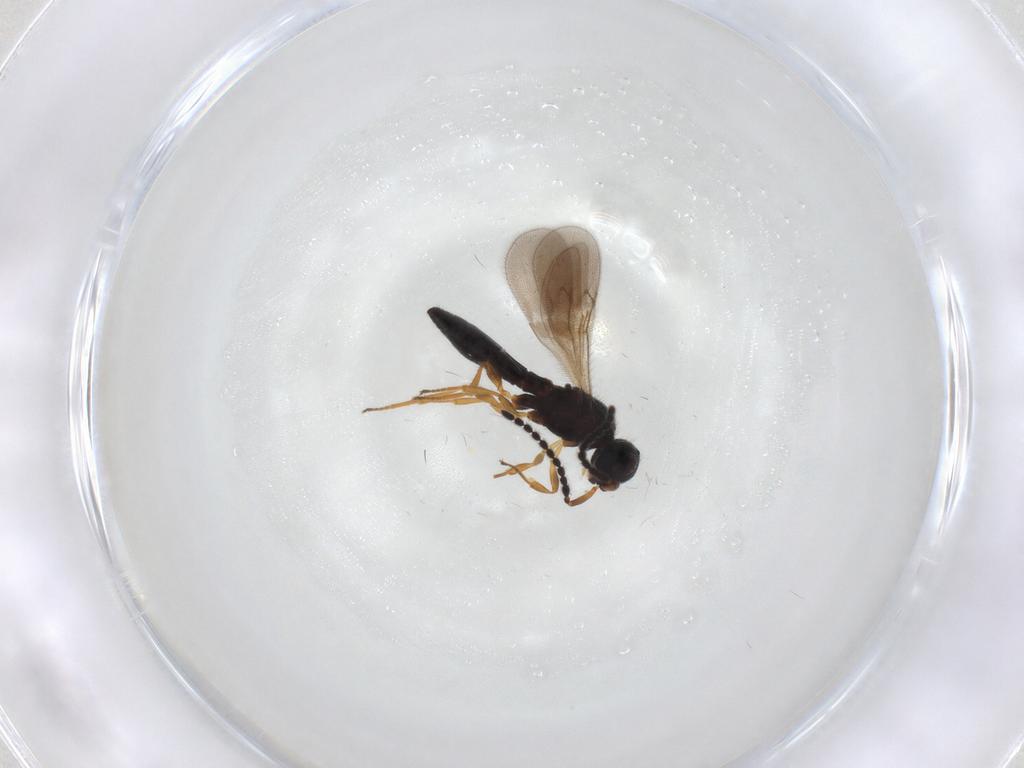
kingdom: Animalia
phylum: Arthropoda
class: Insecta
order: Hymenoptera
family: Scelionidae
